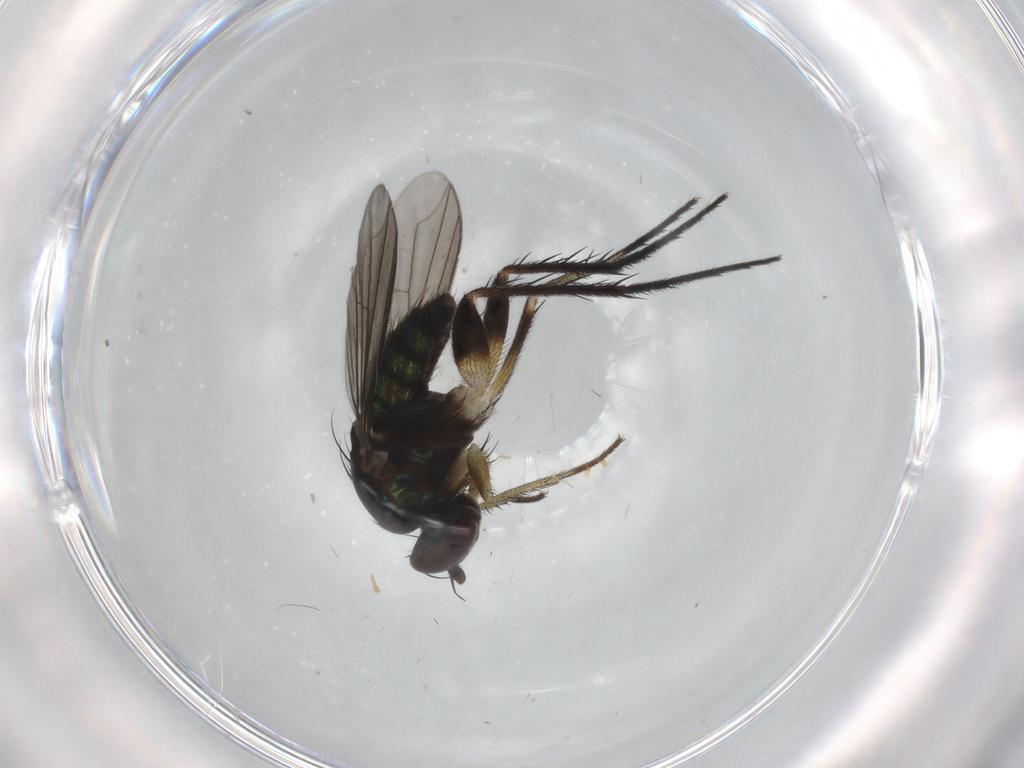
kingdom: Animalia
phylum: Arthropoda
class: Insecta
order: Diptera
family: Dolichopodidae
